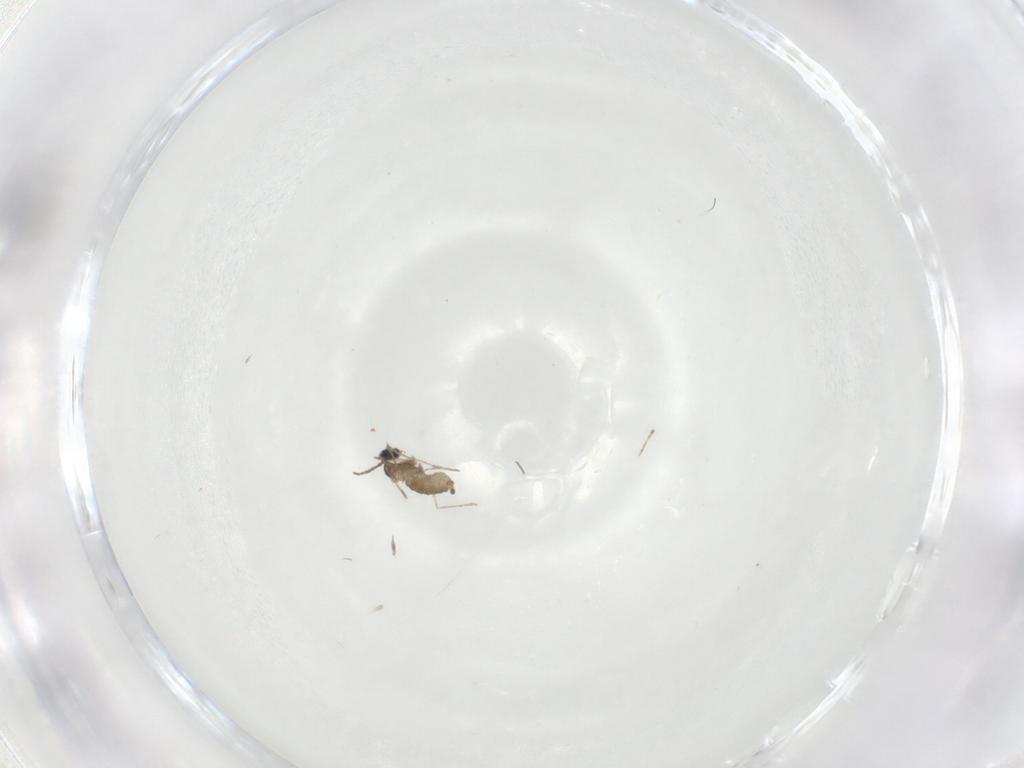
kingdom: Animalia
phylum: Arthropoda
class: Insecta
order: Diptera
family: Cecidomyiidae
